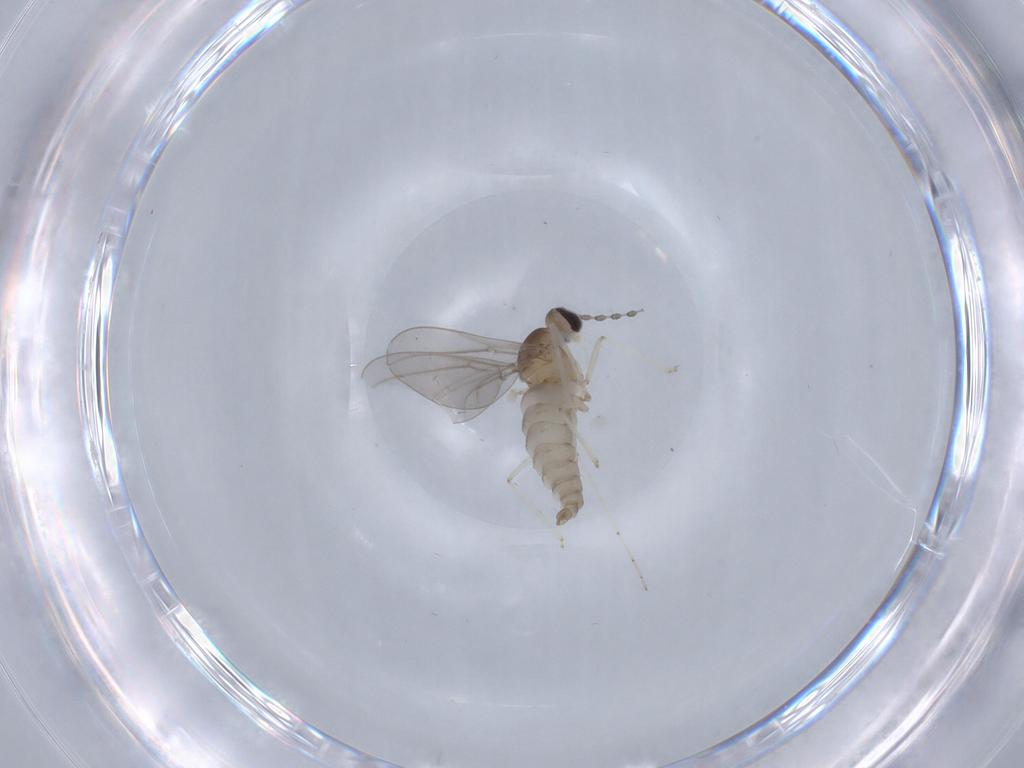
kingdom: Animalia
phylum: Arthropoda
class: Insecta
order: Diptera
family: Cecidomyiidae
